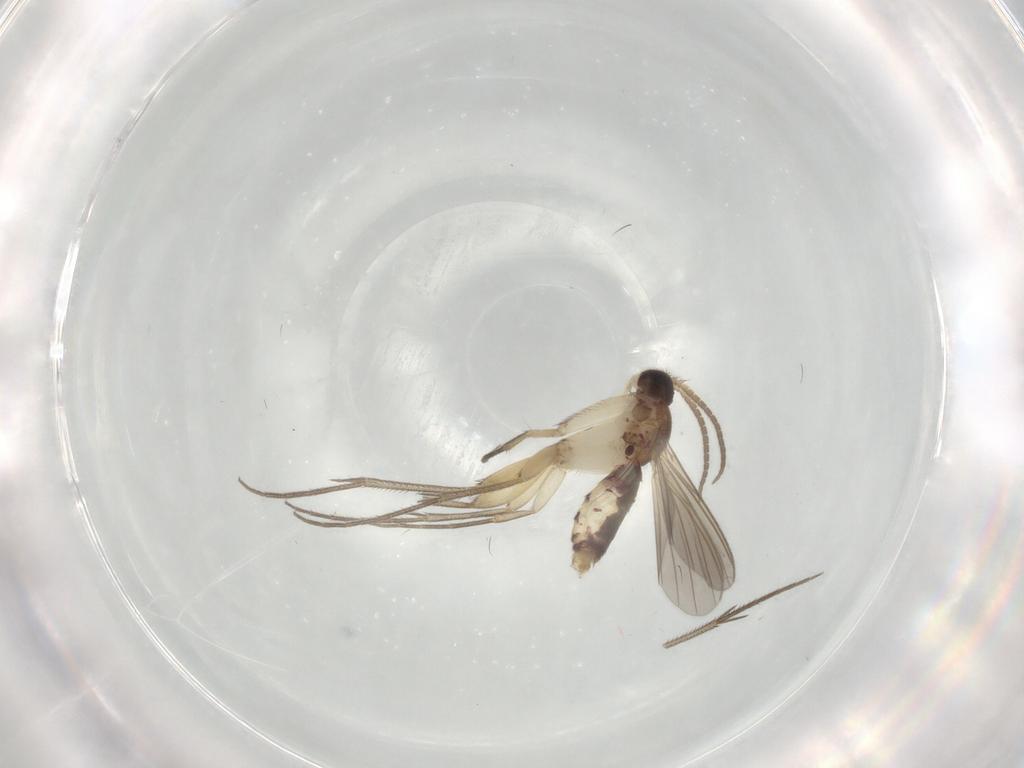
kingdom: Animalia
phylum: Arthropoda
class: Insecta
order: Diptera
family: Mycetophilidae
